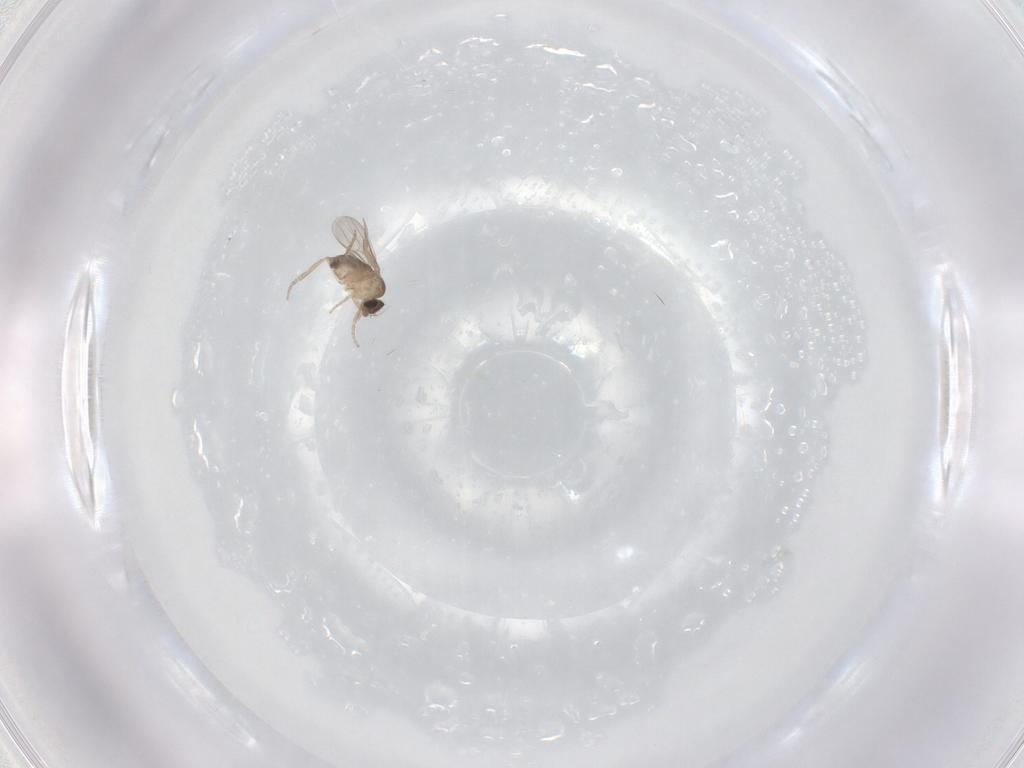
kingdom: Animalia
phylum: Arthropoda
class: Insecta
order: Diptera
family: Phoridae
